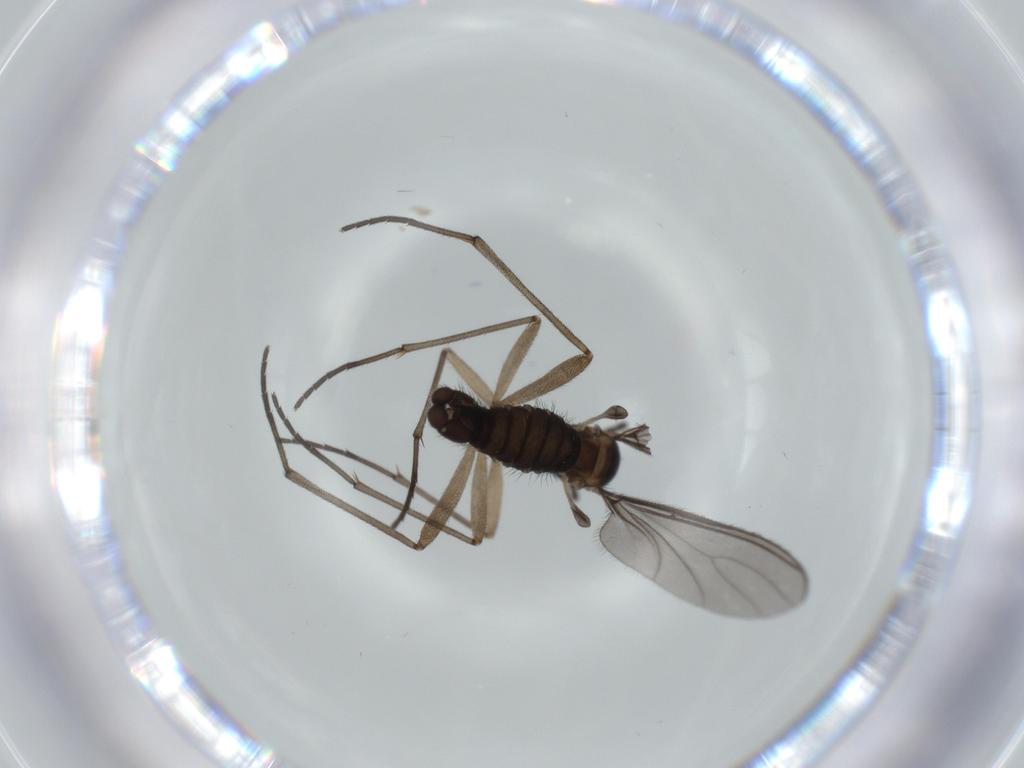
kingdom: Animalia
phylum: Arthropoda
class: Insecta
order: Diptera
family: Sciaridae
